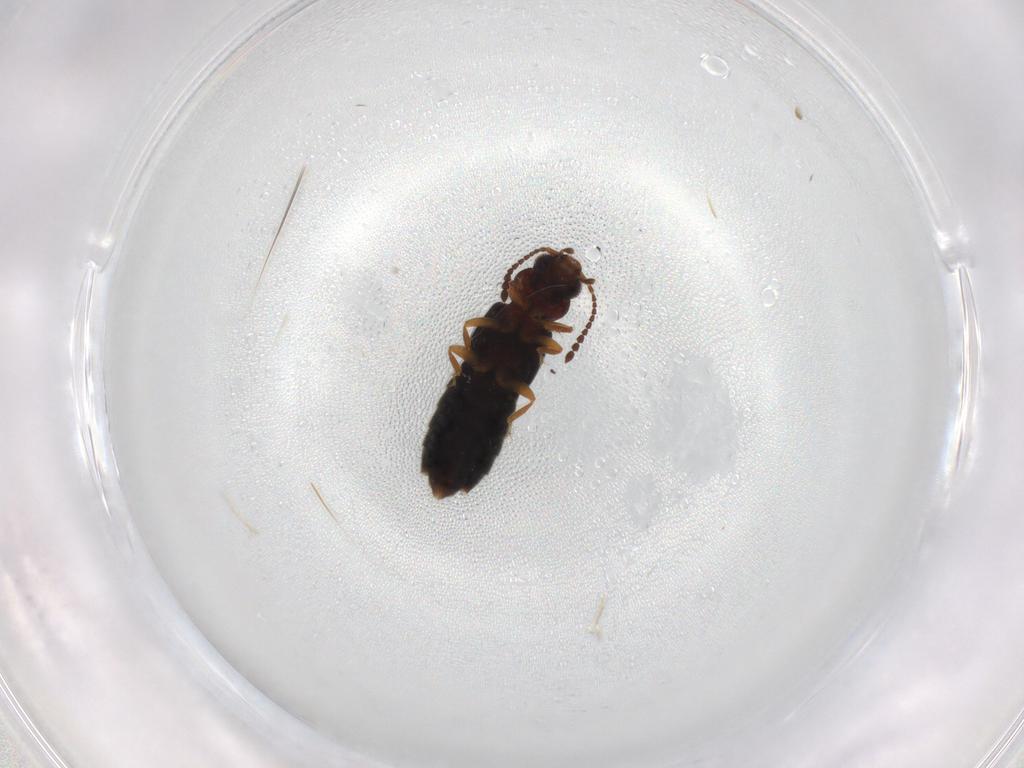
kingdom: Animalia
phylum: Arthropoda
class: Insecta
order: Coleoptera
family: Staphylinidae
